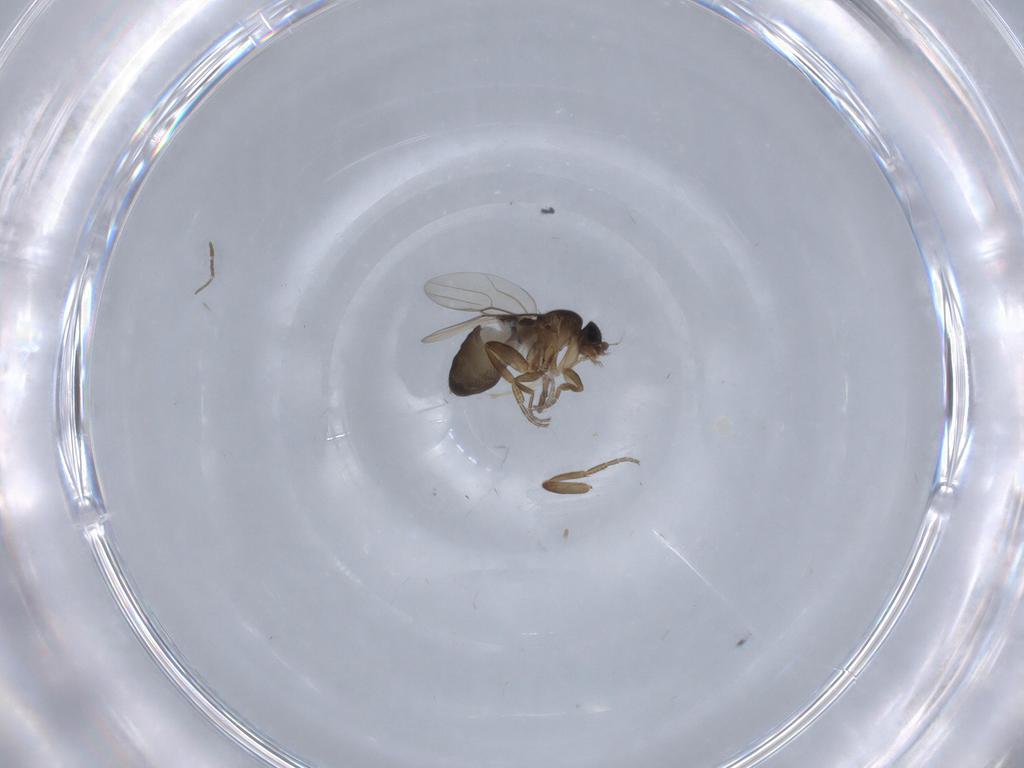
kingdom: Animalia
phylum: Arthropoda
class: Insecta
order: Diptera
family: Phoridae
